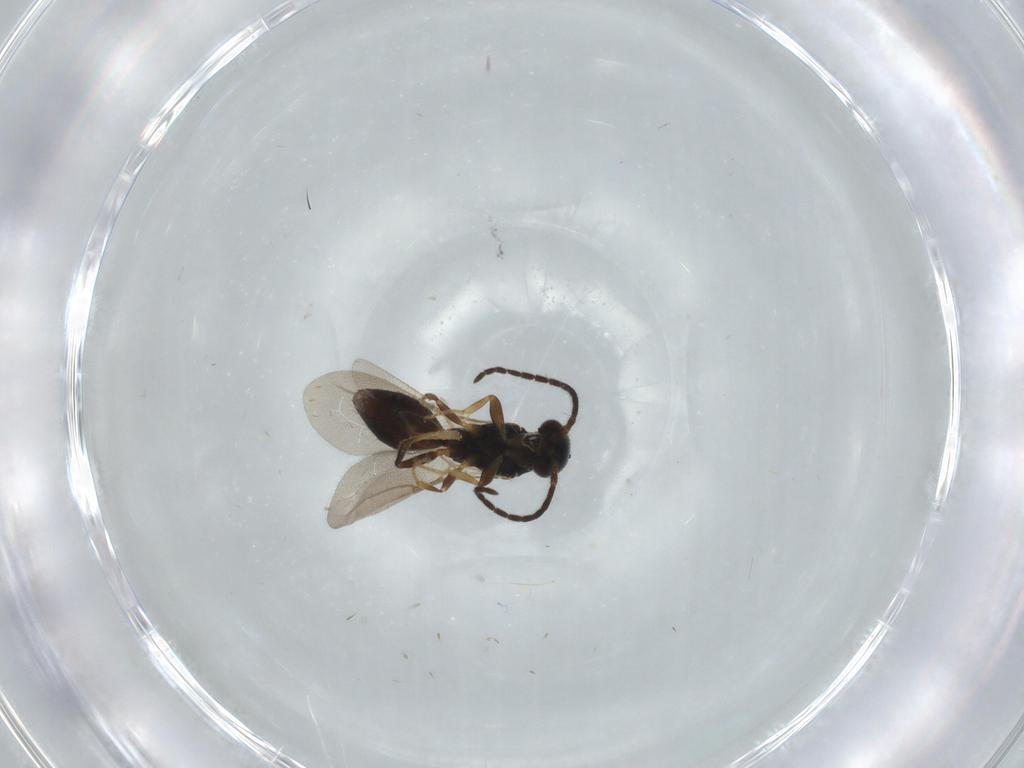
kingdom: Animalia
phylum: Arthropoda
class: Insecta
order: Hymenoptera
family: Bethylidae
